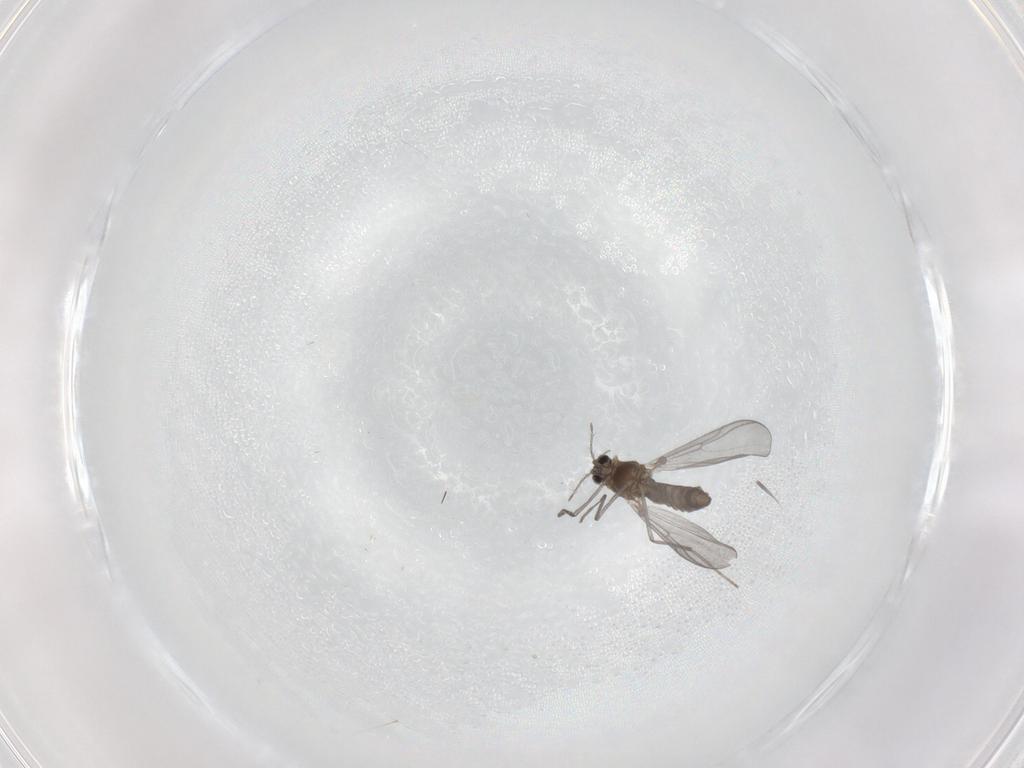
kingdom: Animalia
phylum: Arthropoda
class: Insecta
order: Diptera
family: Chironomidae
